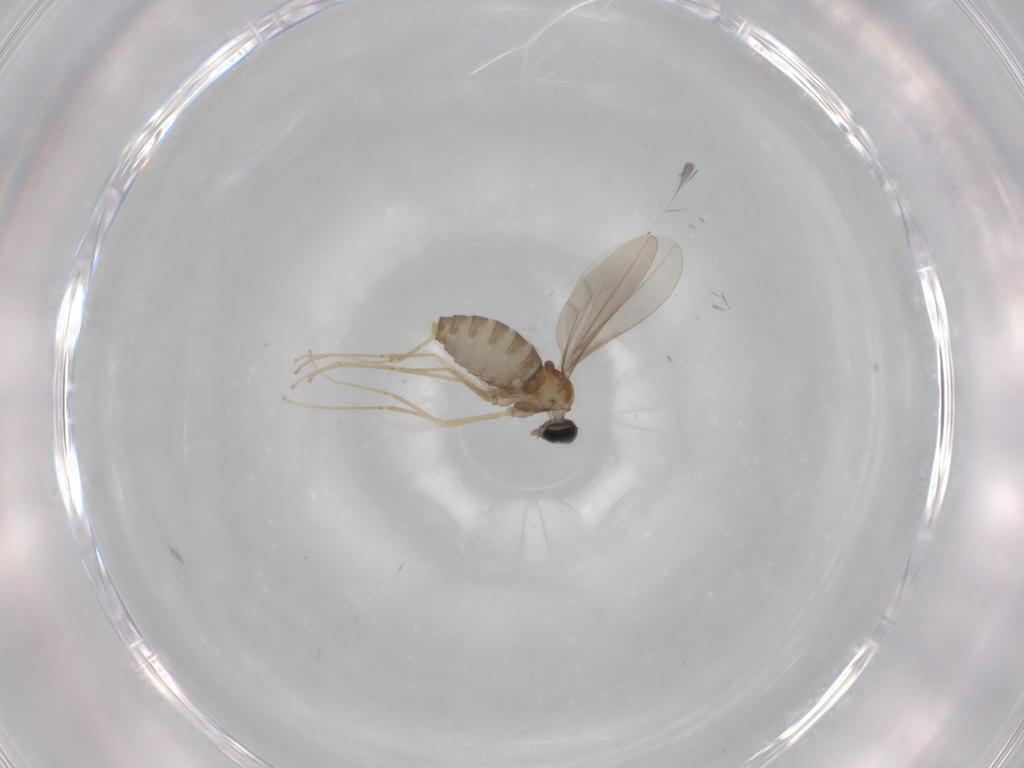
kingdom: Animalia
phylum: Arthropoda
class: Insecta
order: Diptera
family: Cecidomyiidae
